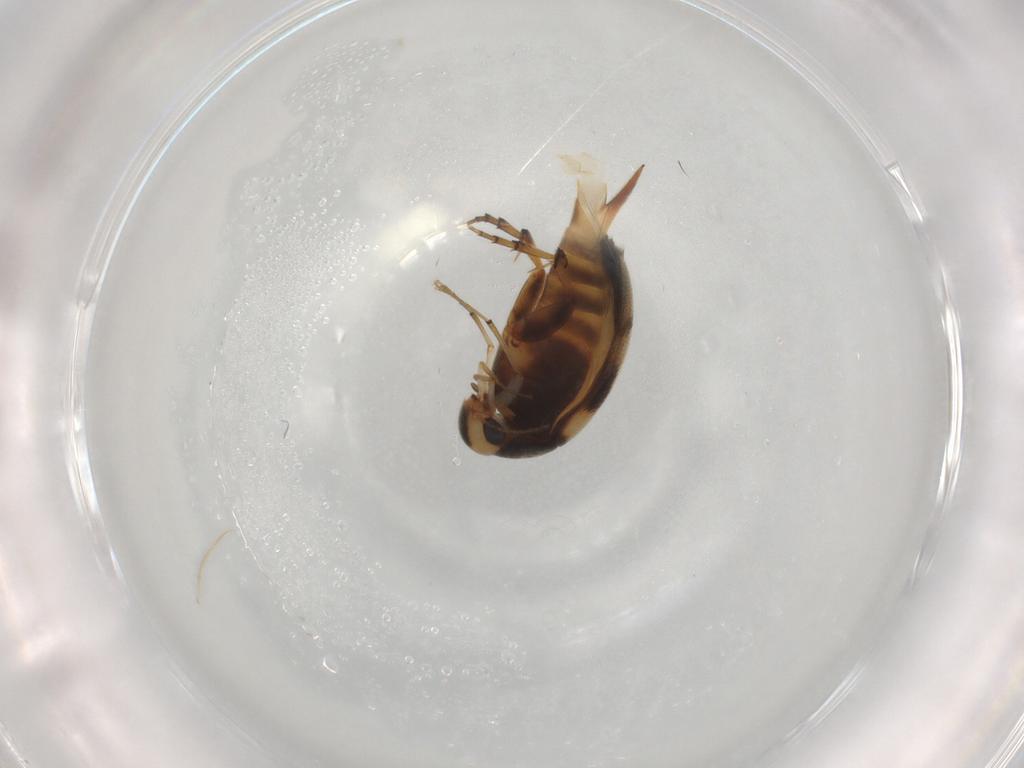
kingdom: Animalia
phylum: Arthropoda
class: Insecta
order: Coleoptera
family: Mordellidae
